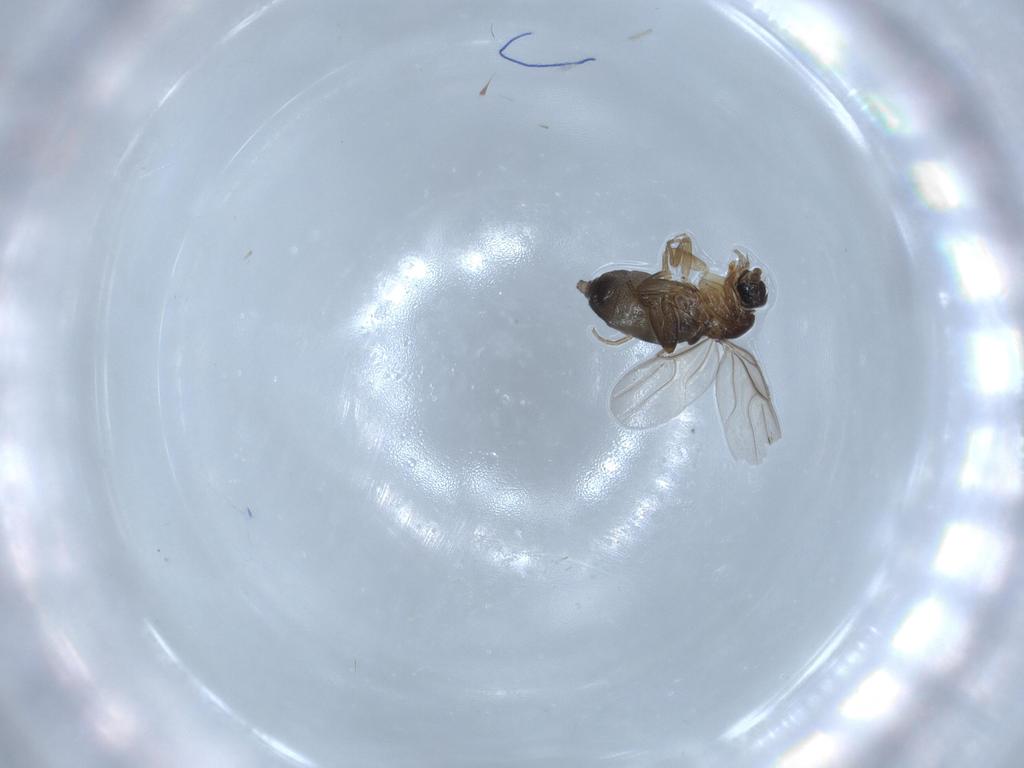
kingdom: Animalia
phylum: Arthropoda
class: Insecta
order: Diptera
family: Phoridae
